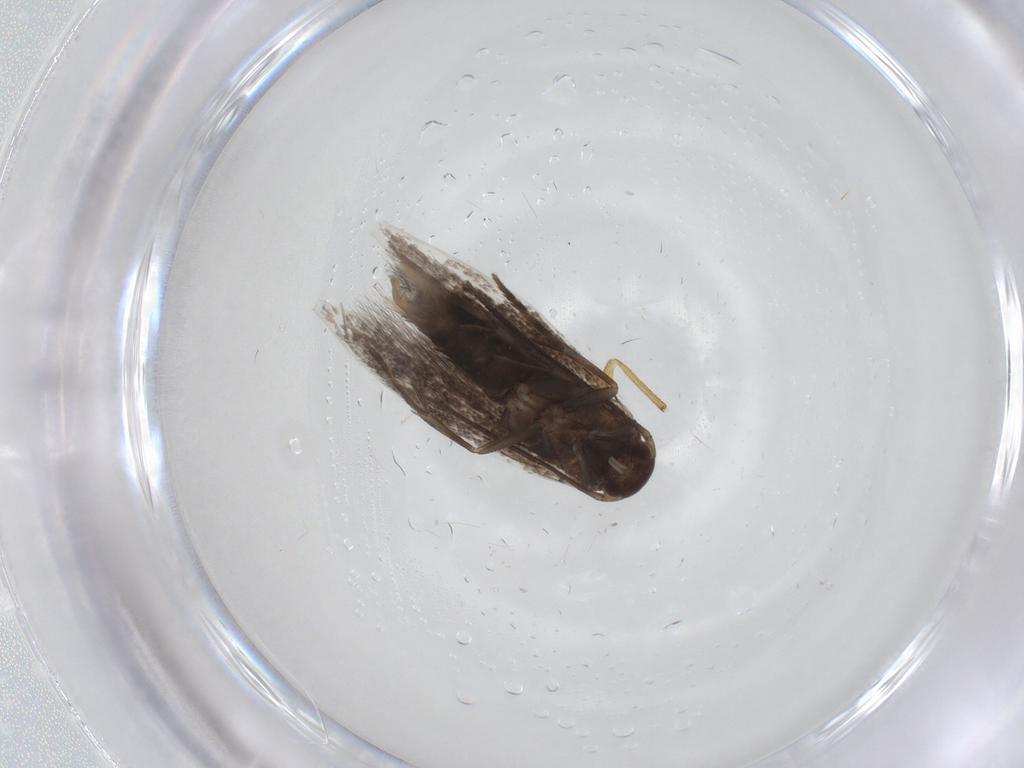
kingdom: Animalia
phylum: Arthropoda
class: Insecta
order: Lepidoptera
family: Elachistidae
